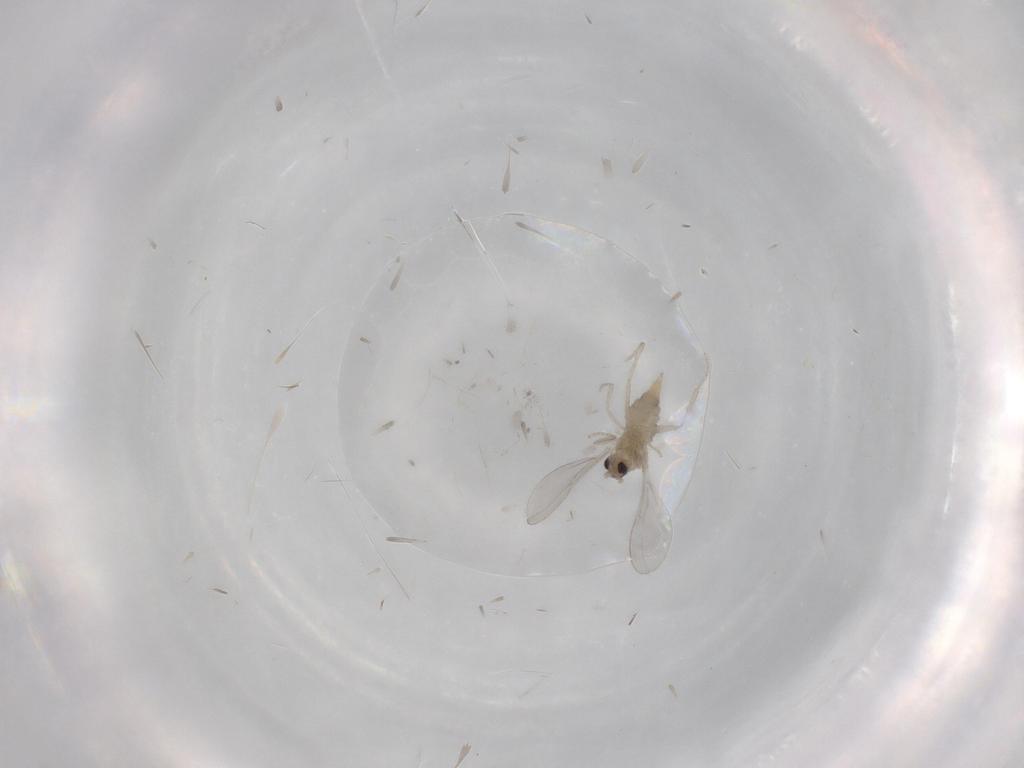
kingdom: Animalia
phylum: Arthropoda
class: Insecta
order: Diptera
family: Cecidomyiidae
